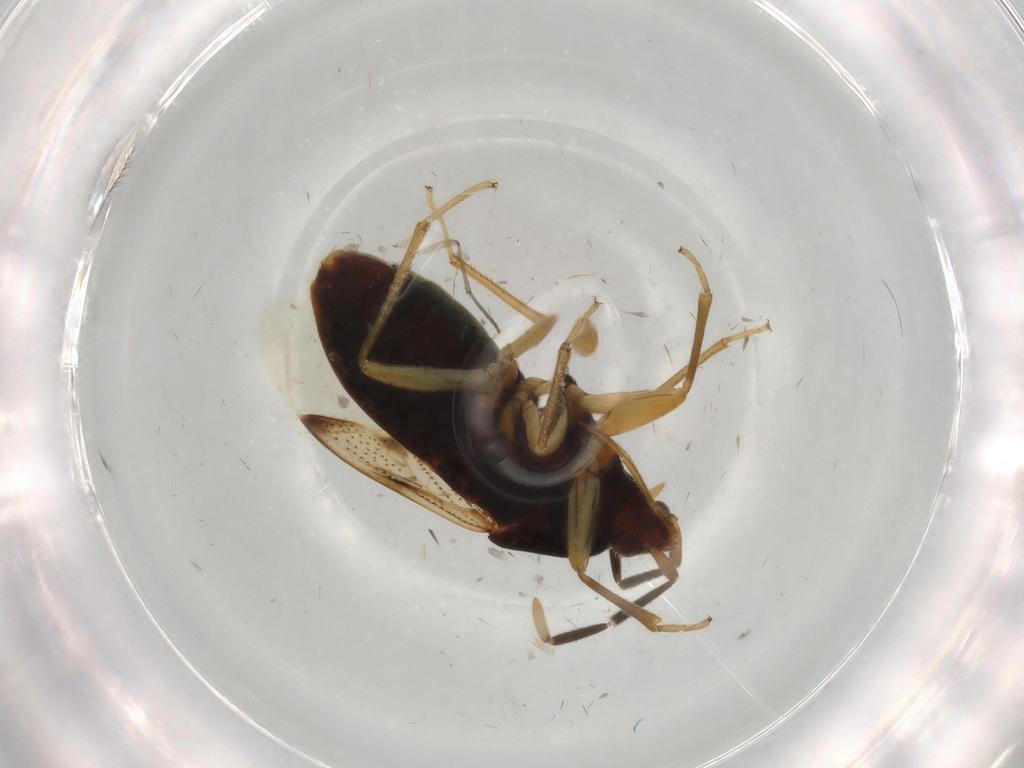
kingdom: Animalia
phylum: Arthropoda
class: Insecta
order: Hemiptera
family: Rhyparochromidae
